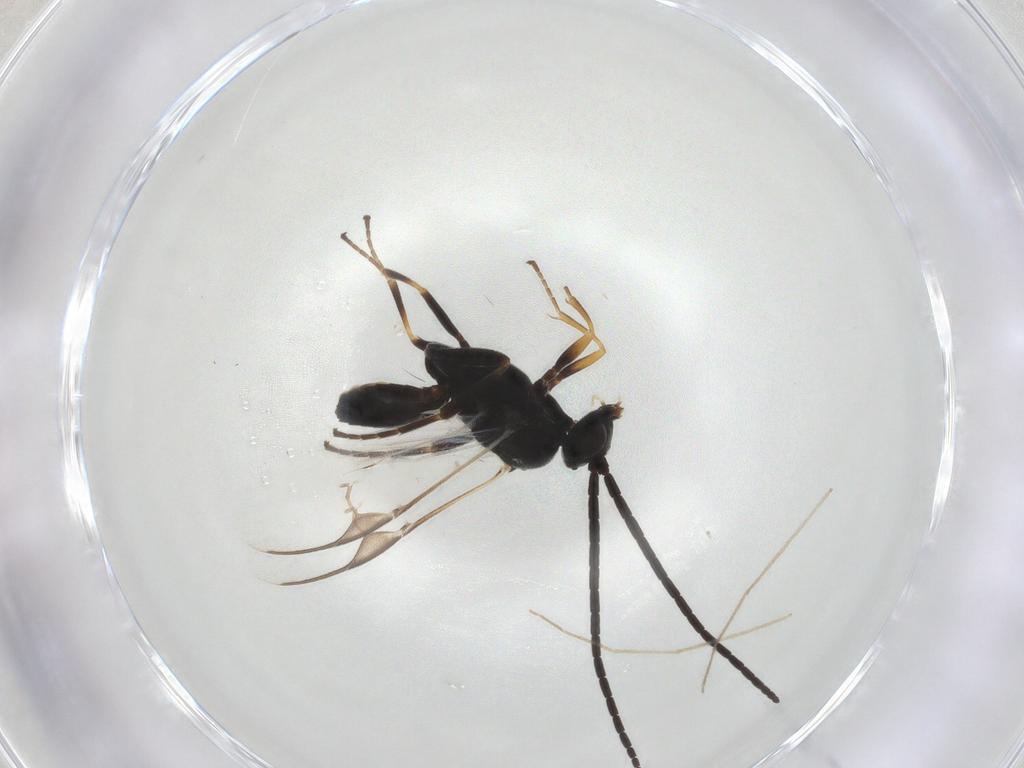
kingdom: Animalia
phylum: Arthropoda
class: Insecta
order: Hymenoptera
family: Braconidae
